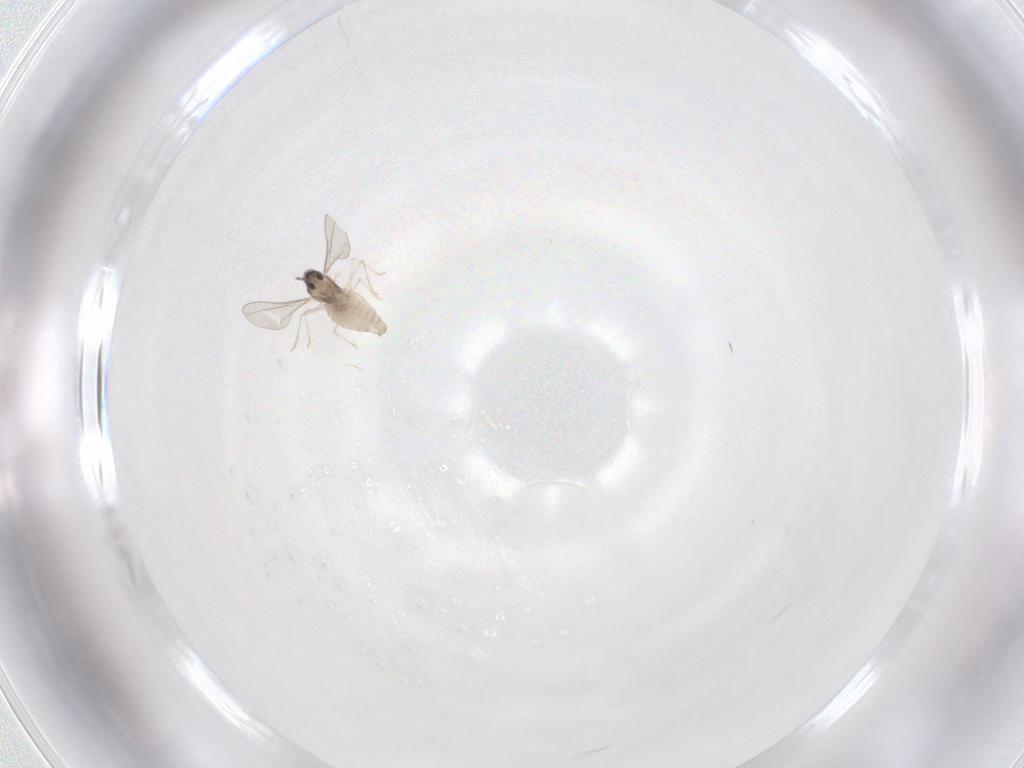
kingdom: Animalia
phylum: Arthropoda
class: Insecta
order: Diptera
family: Cecidomyiidae
